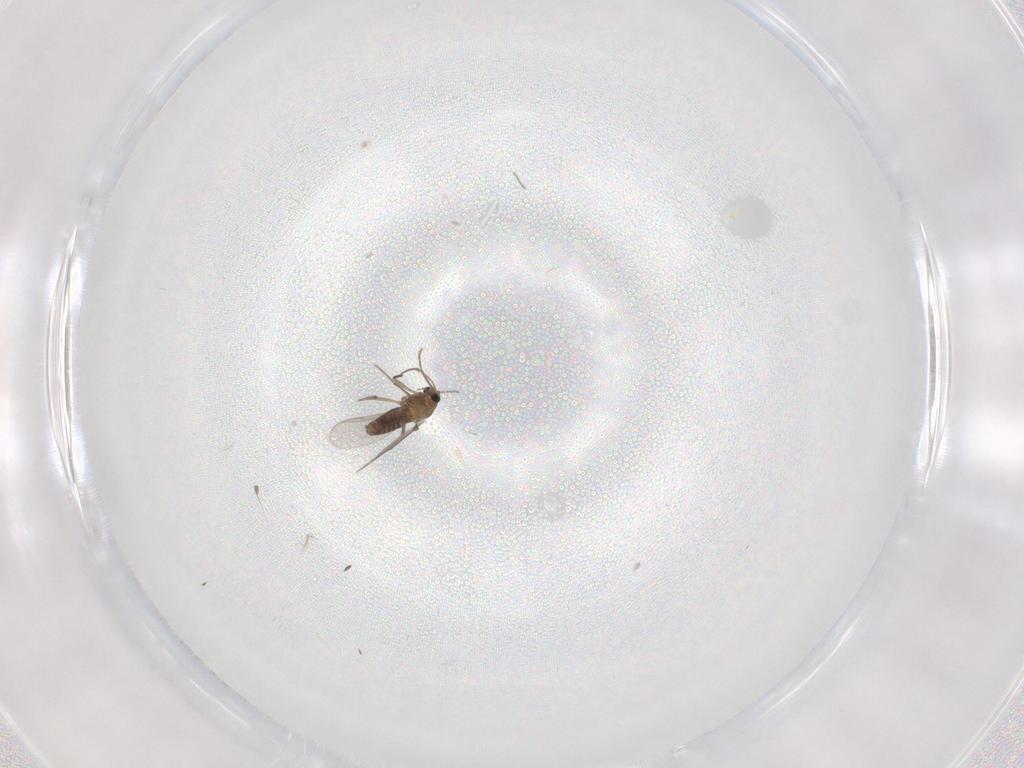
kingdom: Animalia
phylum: Arthropoda
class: Insecta
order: Diptera
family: Chironomidae
